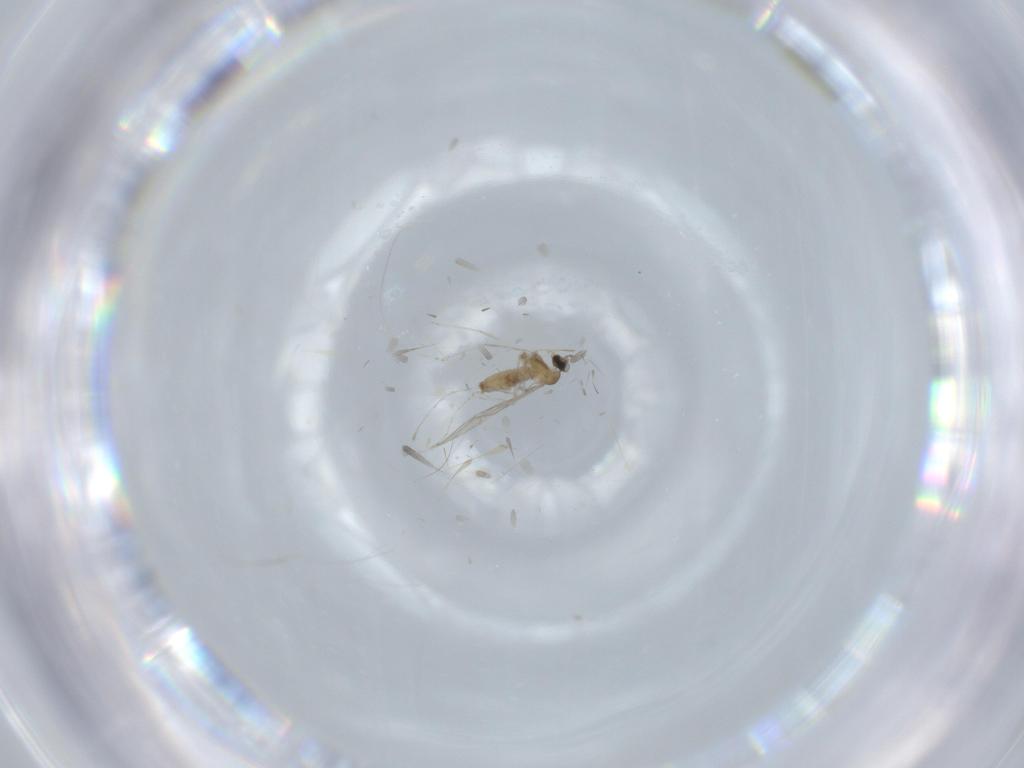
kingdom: Animalia
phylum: Arthropoda
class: Insecta
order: Diptera
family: Cecidomyiidae
